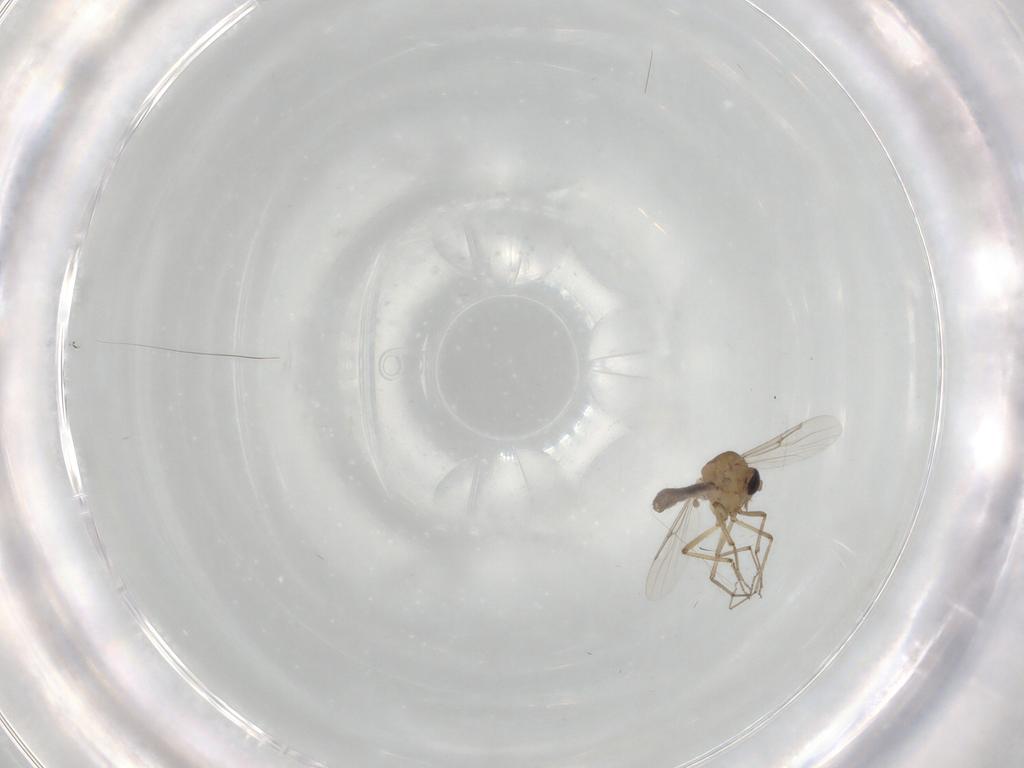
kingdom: Animalia
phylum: Arthropoda
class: Insecta
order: Diptera
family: Ceratopogonidae
